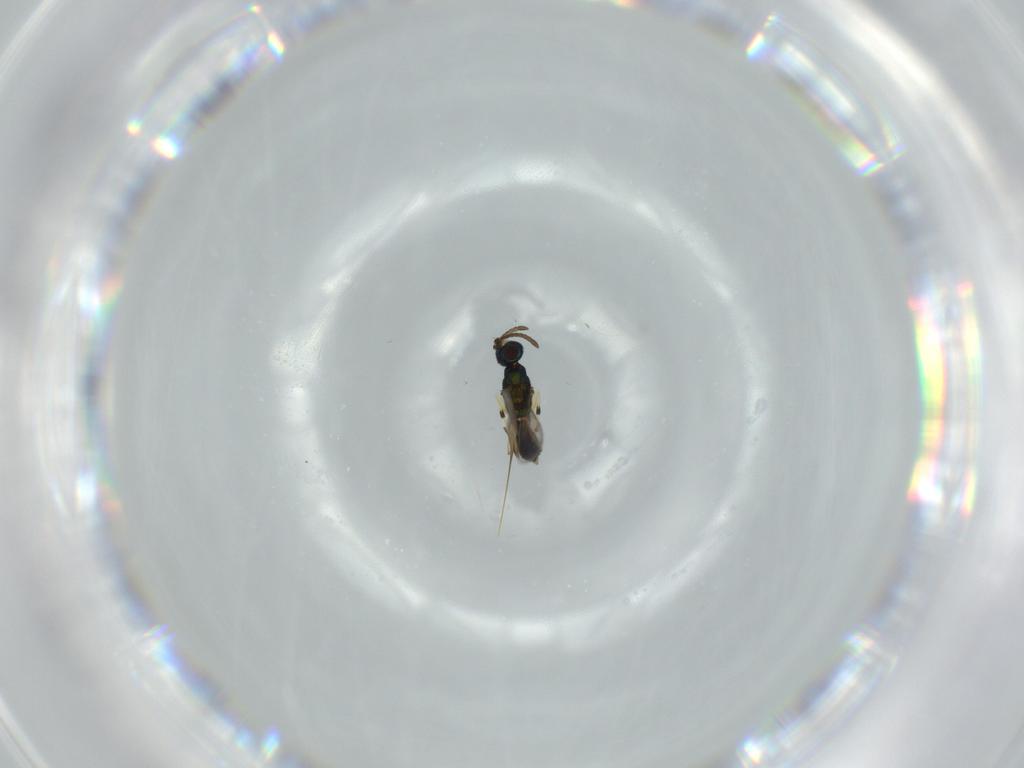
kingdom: Animalia
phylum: Arthropoda
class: Insecta
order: Hymenoptera
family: Eupelmidae
